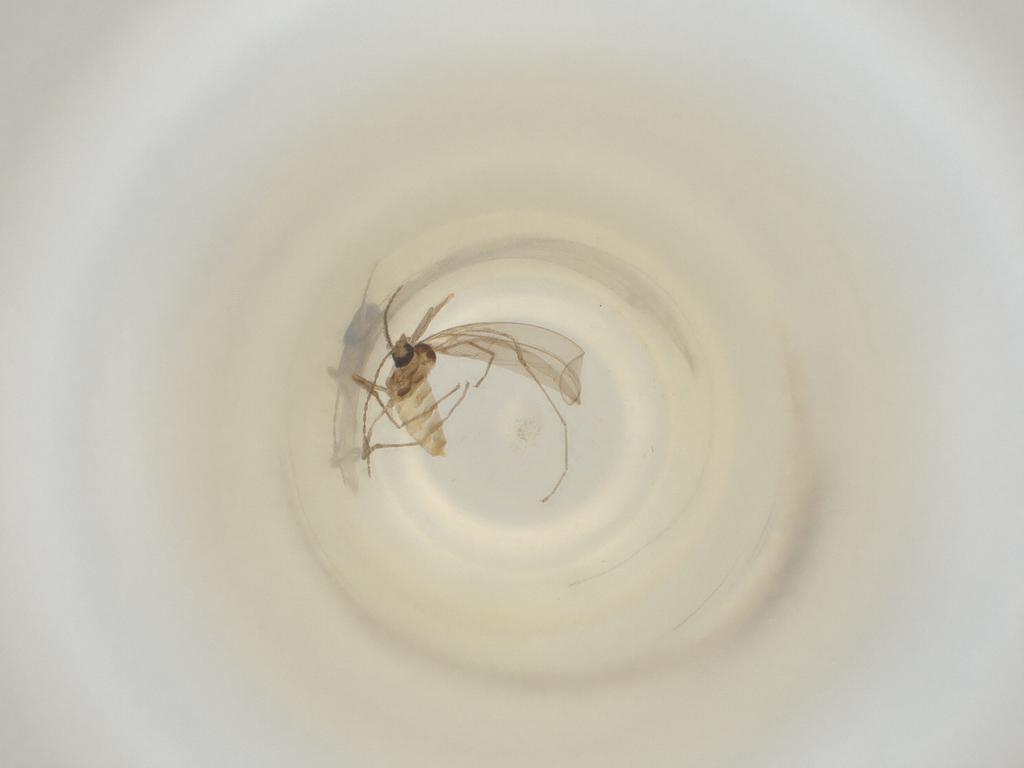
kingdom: Animalia
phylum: Arthropoda
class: Insecta
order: Diptera
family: Cecidomyiidae
